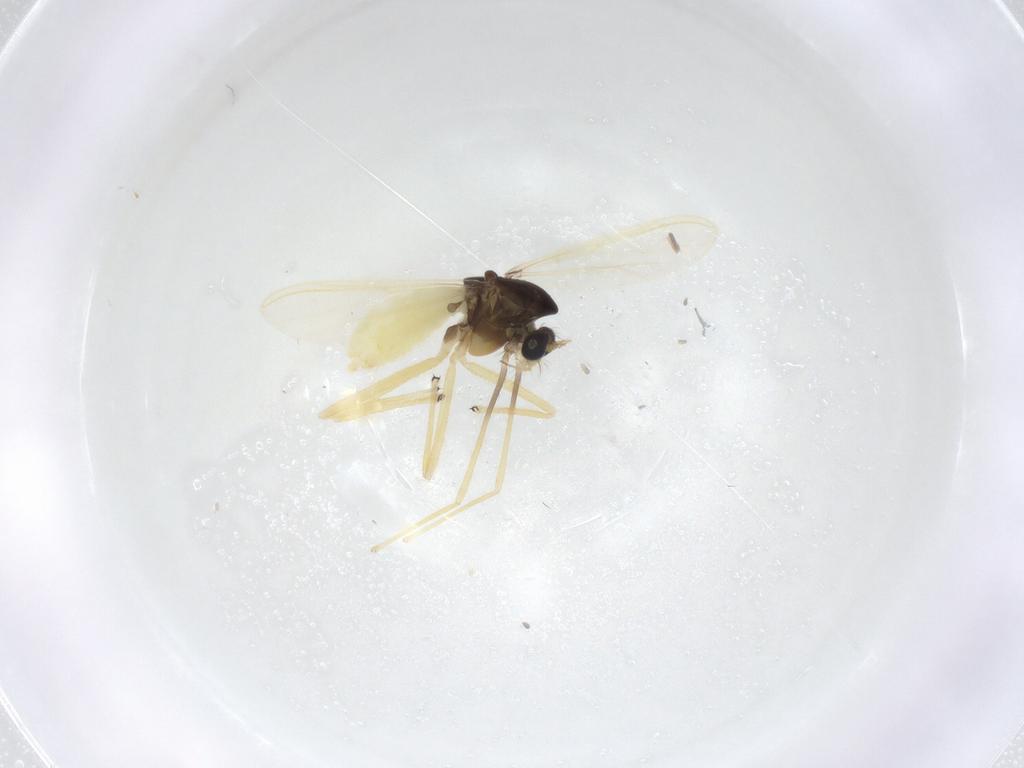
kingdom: Animalia
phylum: Arthropoda
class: Insecta
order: Diptera
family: Chironomidae
